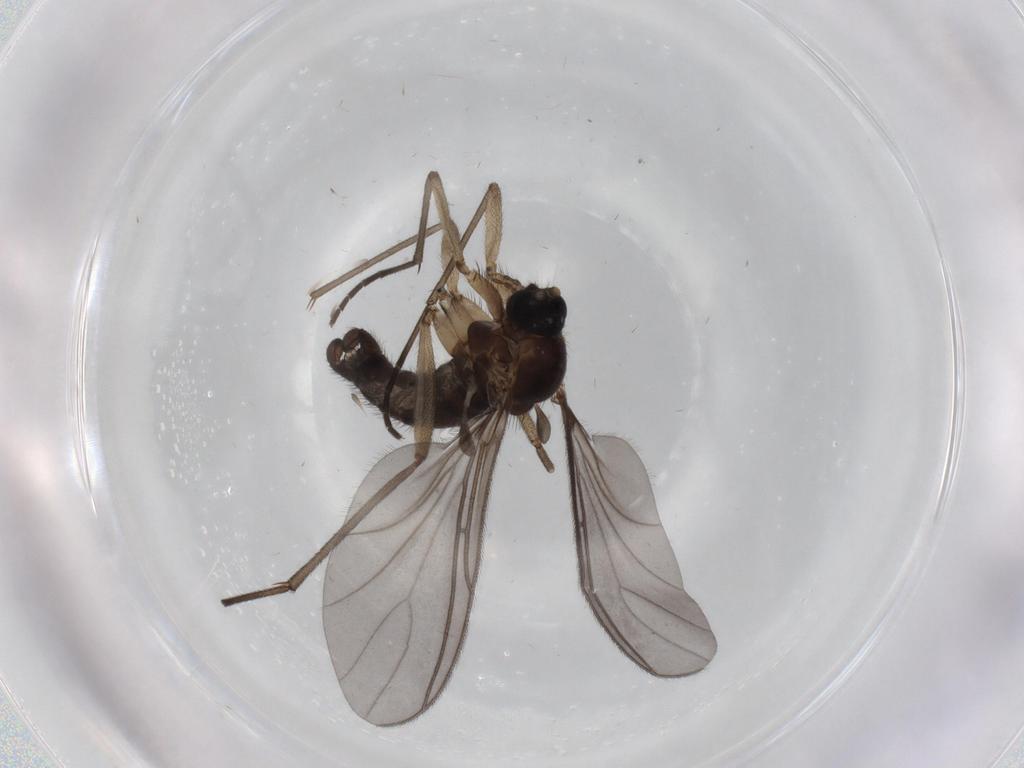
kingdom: Animalia
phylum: Arthropoda
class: Insecta
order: Diptera
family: Sciaridae
